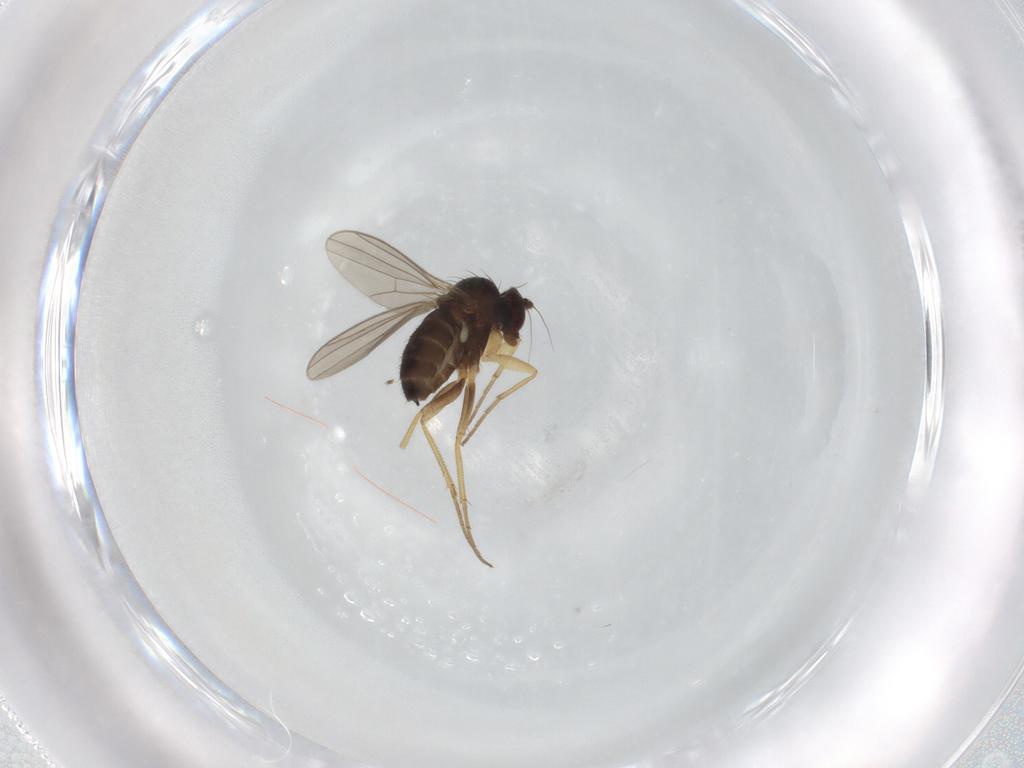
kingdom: Animalia
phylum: Arthropoda
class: Insecta
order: Diptera
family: Dolichopodidae
